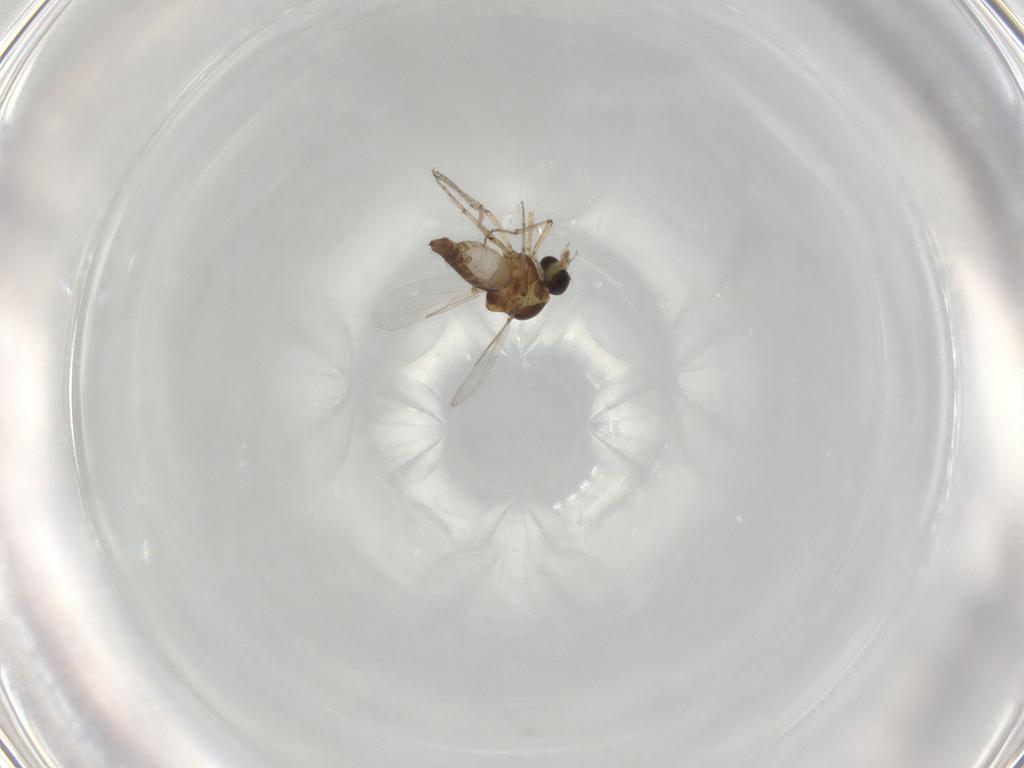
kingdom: Animalia
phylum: Arthropoda
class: Insecta
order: Diptera
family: Ceratopogonidae
